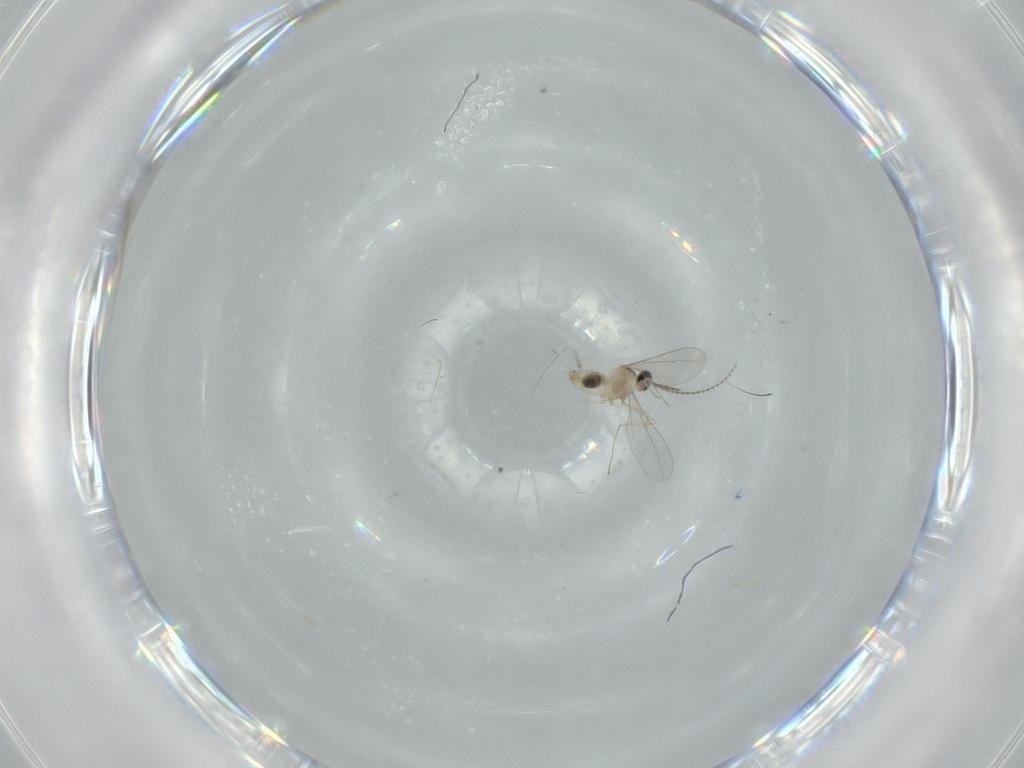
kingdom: Animalia
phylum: Arthropoda
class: Insecta
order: Diptera
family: Cecidomyiidae
